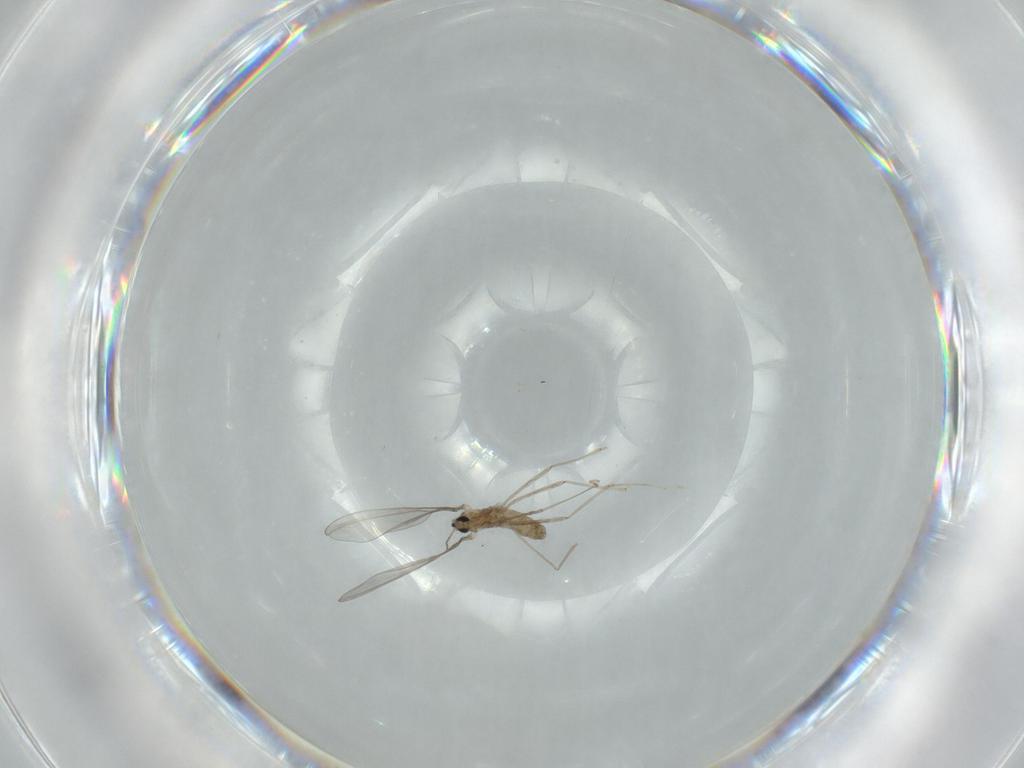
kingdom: Animalia
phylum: Arthropoda
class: Insecta
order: Diptera
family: Cecidomyiidae
